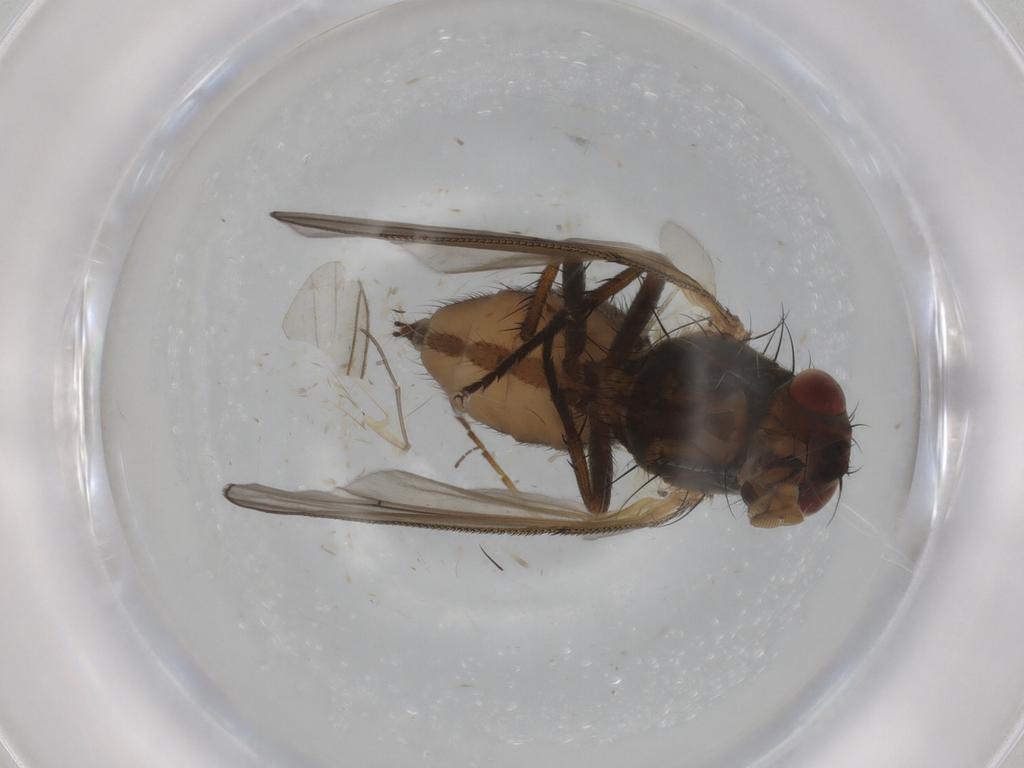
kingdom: Animalia
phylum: Arthropoda
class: Insecta
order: Diptera
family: Anthomyiidae
